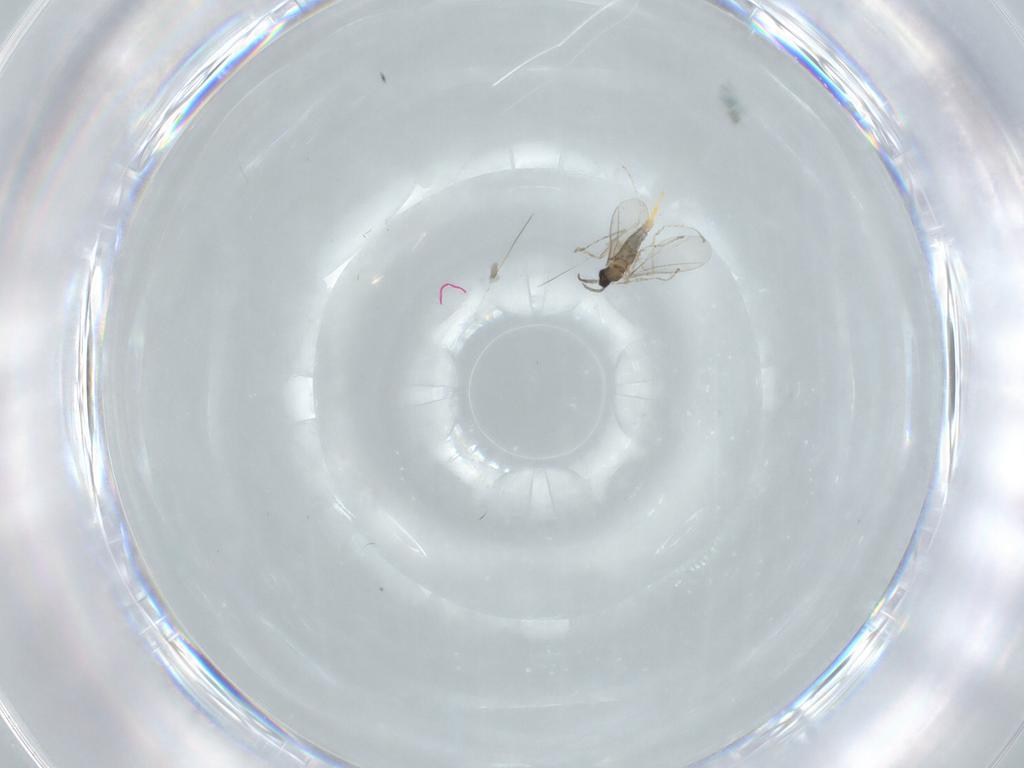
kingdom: Animalia
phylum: Arthropoda
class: Insecta
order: Diptera
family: Cecidomyiidae
